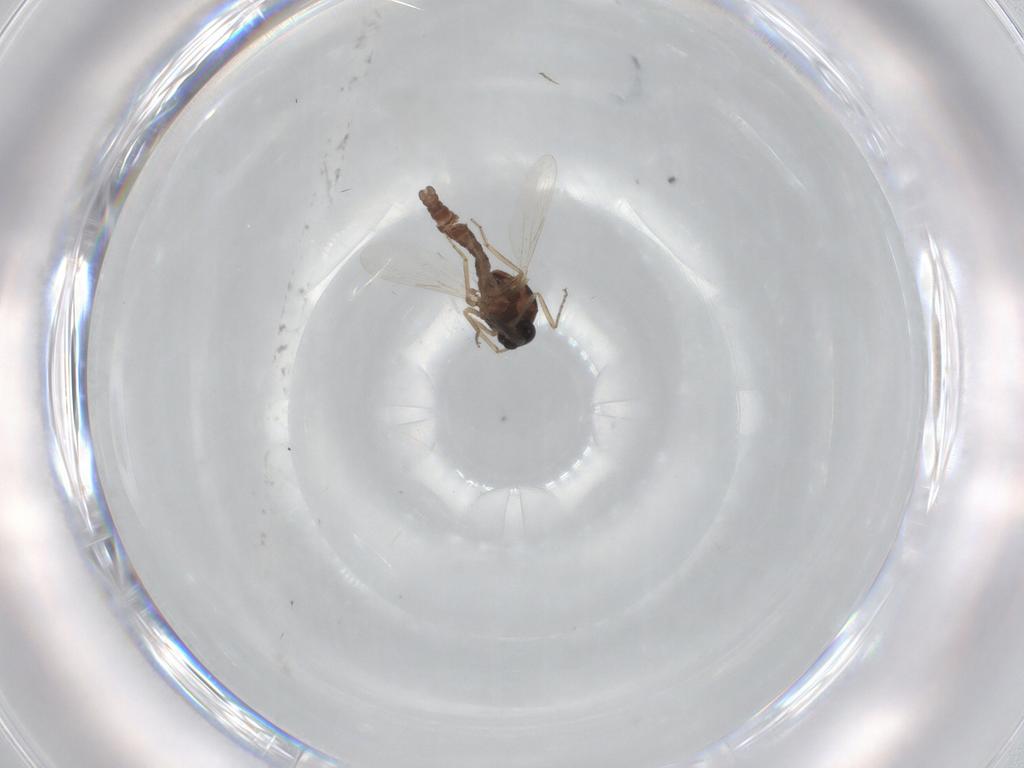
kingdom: Animalia
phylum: Arthropoda
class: Insecta
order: Diptera
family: Ceratopogonidae
